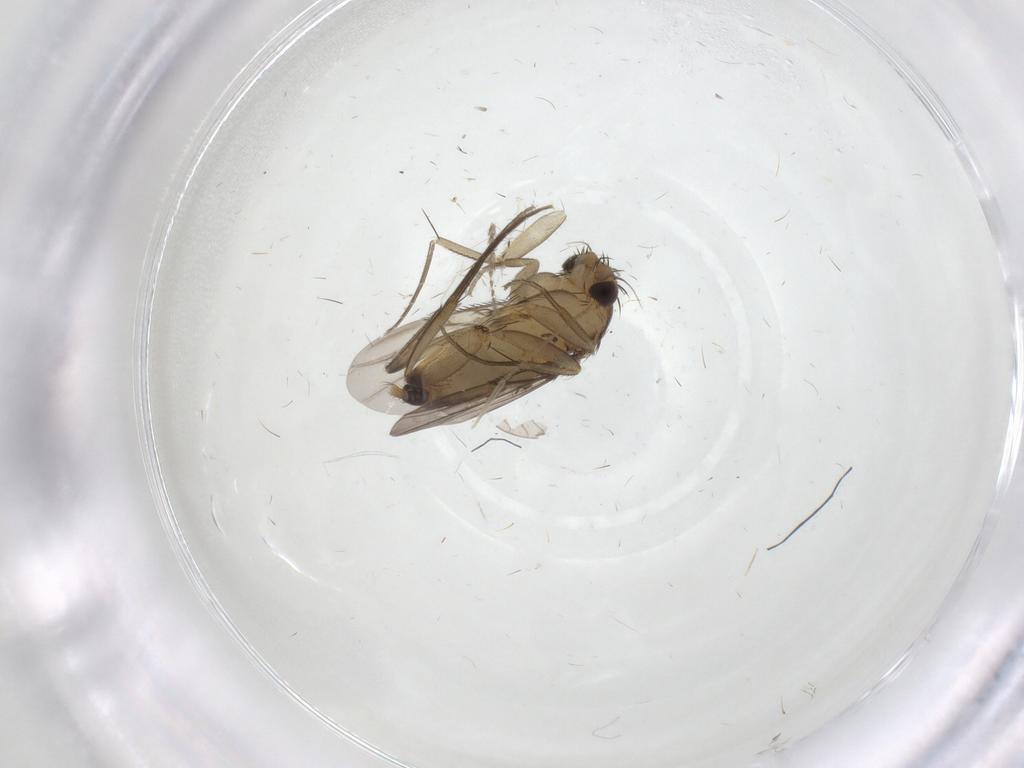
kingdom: Animalia
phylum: Arthropoda
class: Insecta
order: Diptera
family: Phoridae
